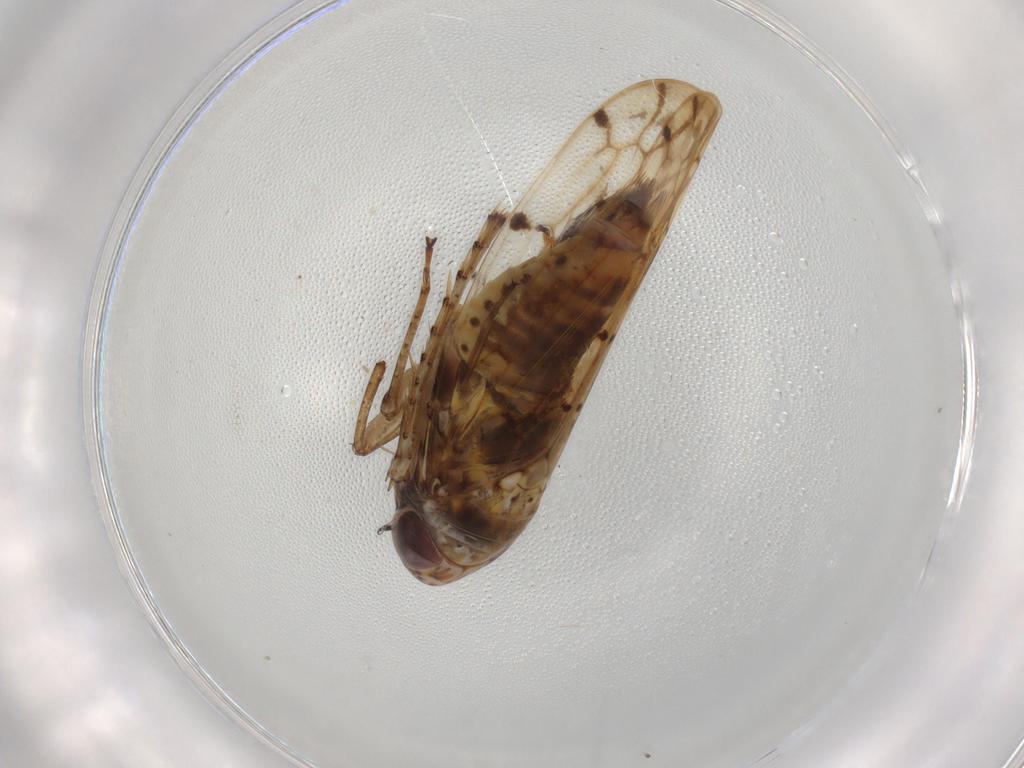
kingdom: Animalia
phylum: Arthropoda
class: Insecta
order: Hemiptera
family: Cicadellidae
